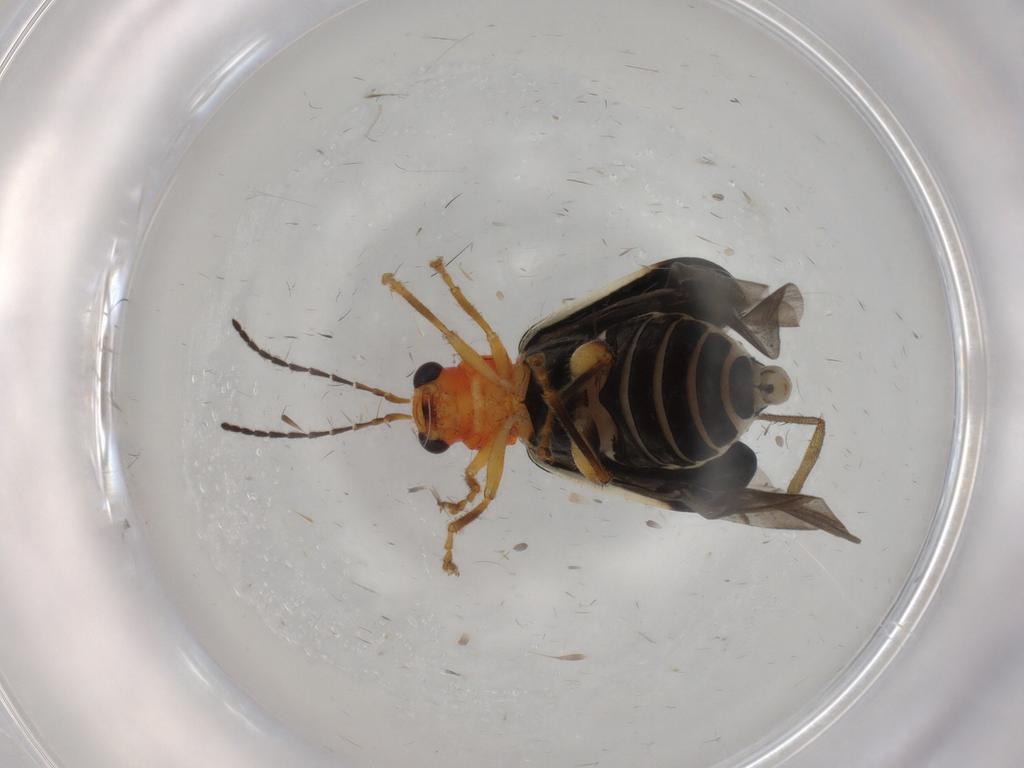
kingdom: Animalia
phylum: Arthropoda
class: Insecta
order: Coleoptera
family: Chrysomelidae
